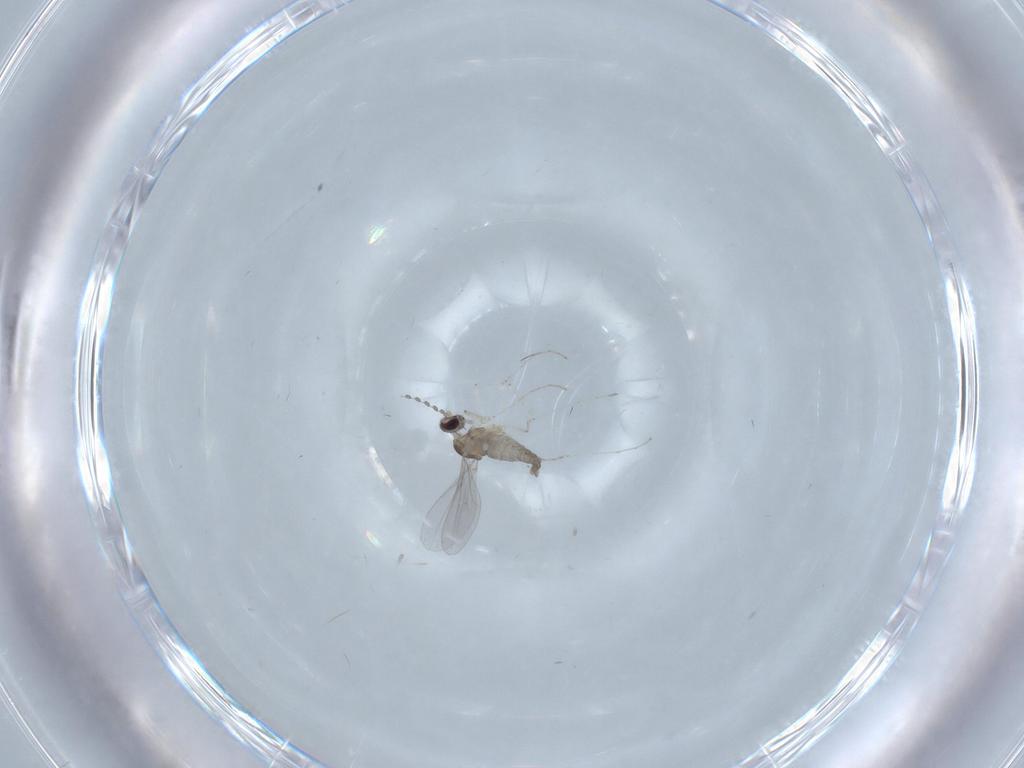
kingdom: Animalia
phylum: Arthropoda
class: Insecta
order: Diptera
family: Cecidomyiidae
